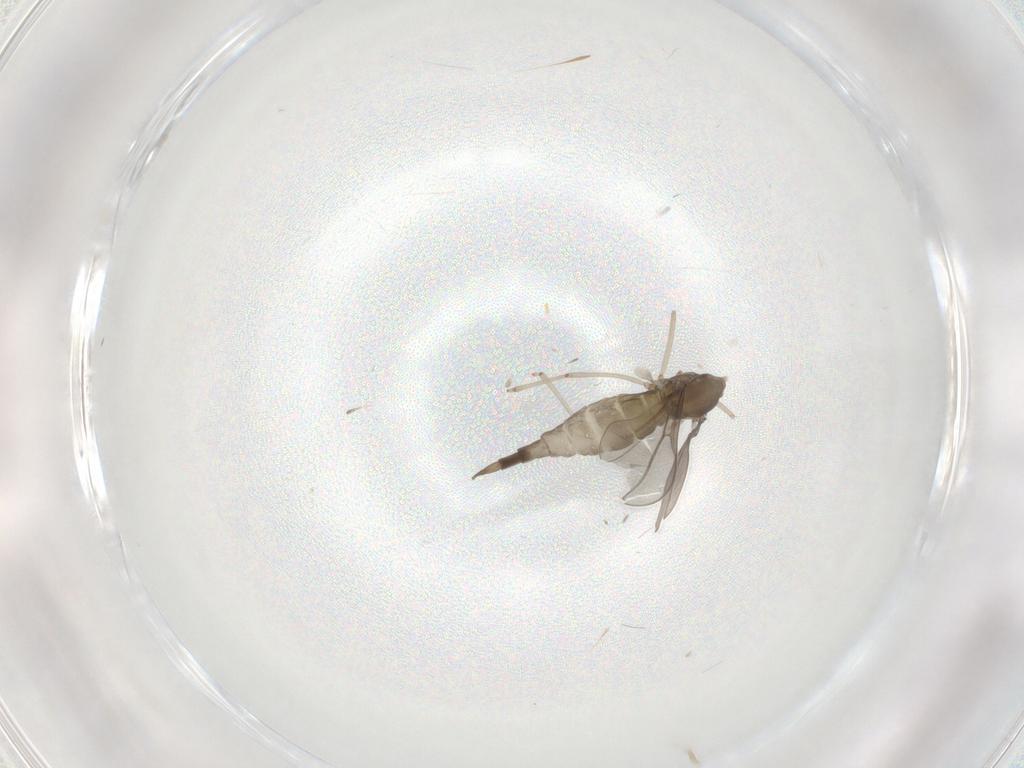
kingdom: Animalia
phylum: Arthropoda
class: Insecta
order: Diptera
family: Cecidomyiidae
